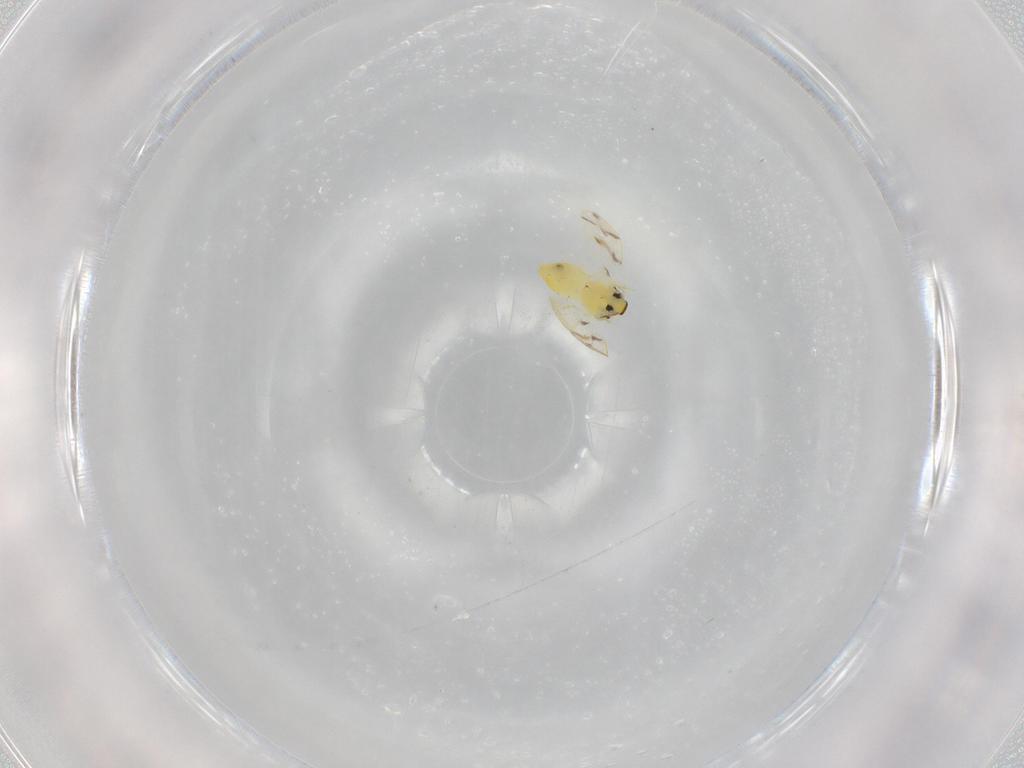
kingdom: Animalia
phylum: Arthropoda
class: Insecta
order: Hemiptera
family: Aleyrodidae
